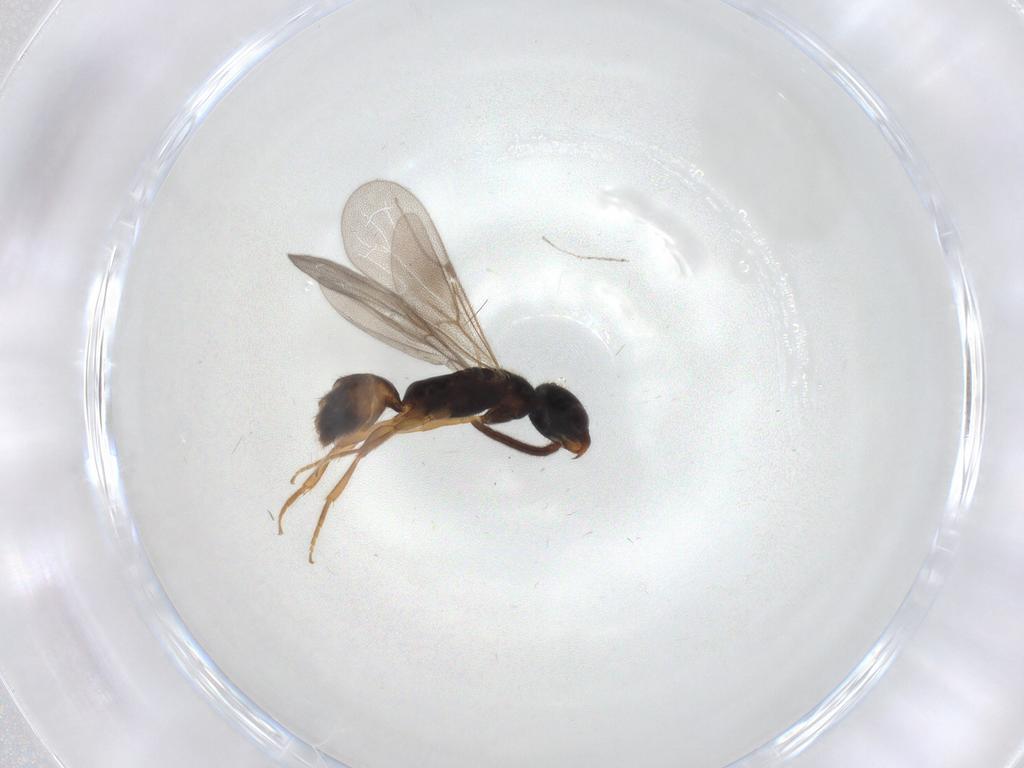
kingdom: Animalia
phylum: Arthropoda
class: Insecta
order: Hymenoptera
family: Bethylidae
